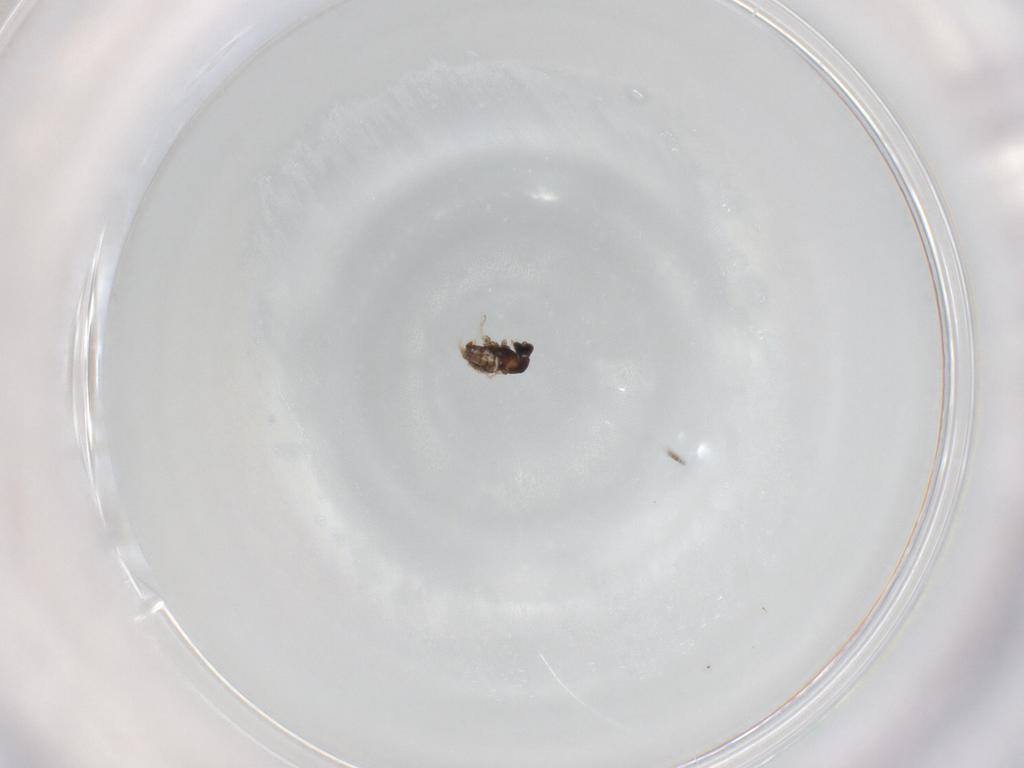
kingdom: Animalia
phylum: Arthropoda
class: Insecta
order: Diptera
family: Cecidomyiidae
